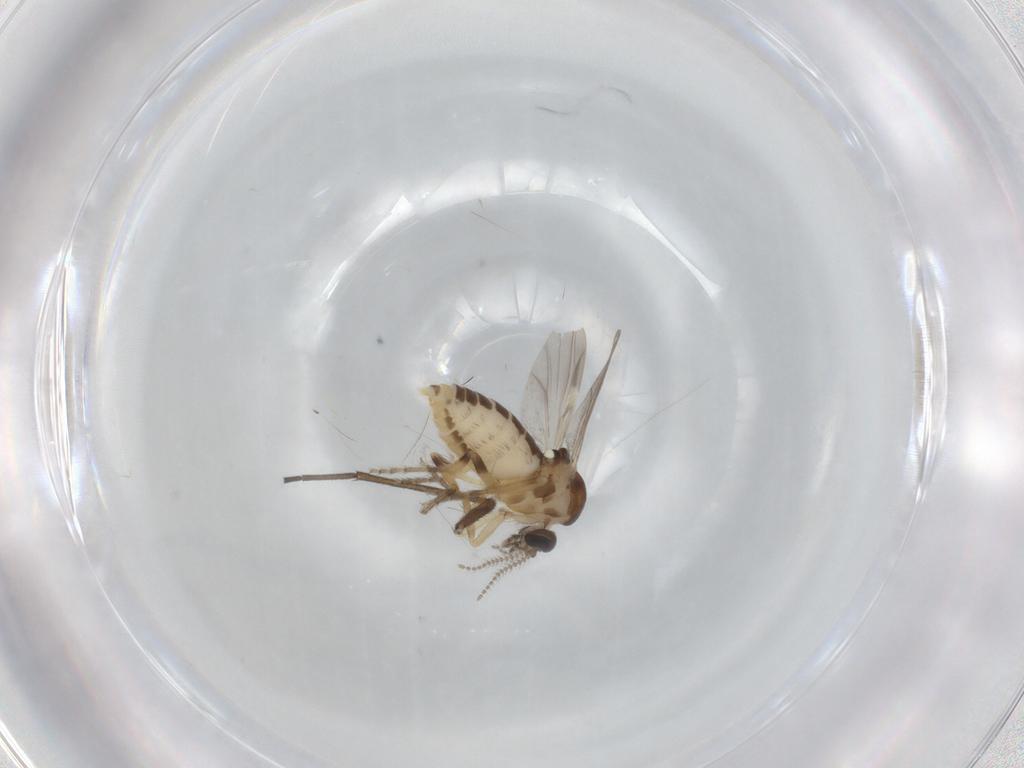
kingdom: Animalia
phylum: Arthropoda
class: Insecta
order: Diptera
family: Ceratopogonidae
